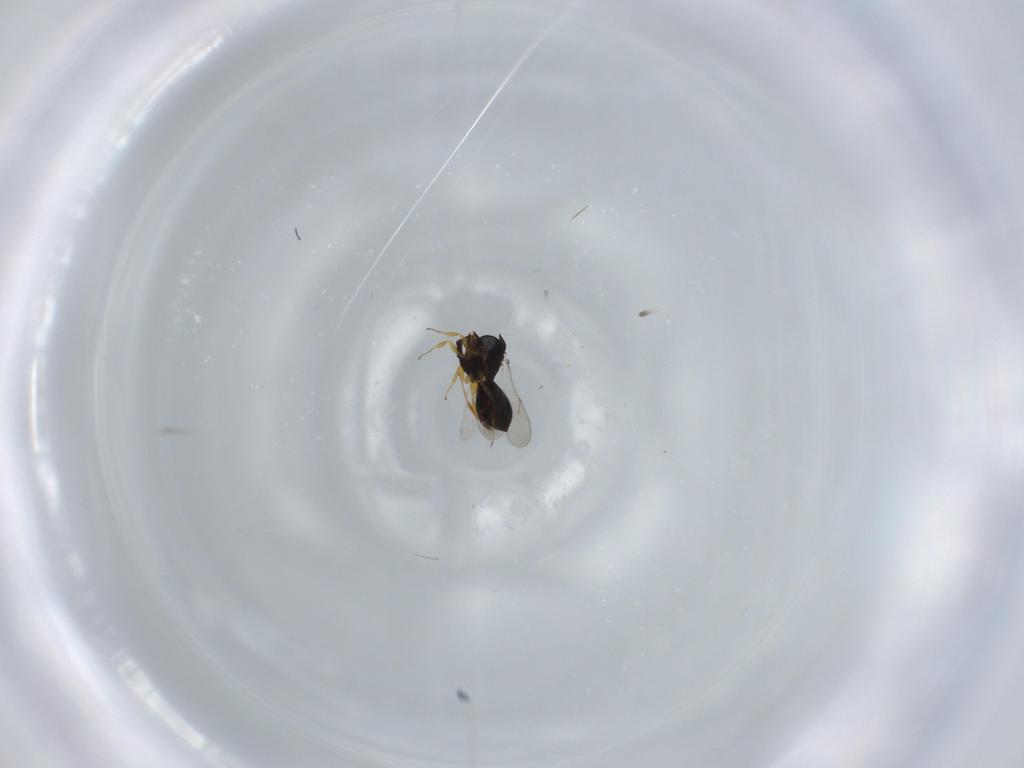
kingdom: Animalia
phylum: Arthropoda
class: Insecta
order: Hymenoptera
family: Scelionidae
